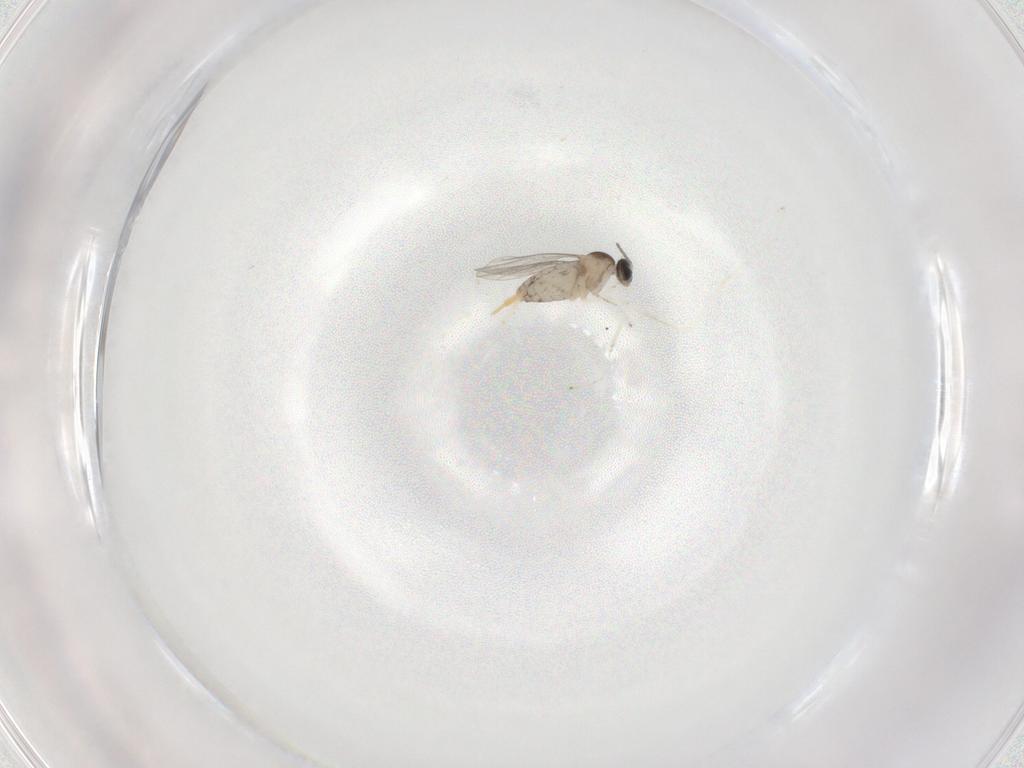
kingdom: Animalia
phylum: Arthropoda
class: Insecta
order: Diptera
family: Cecidomyiidae
